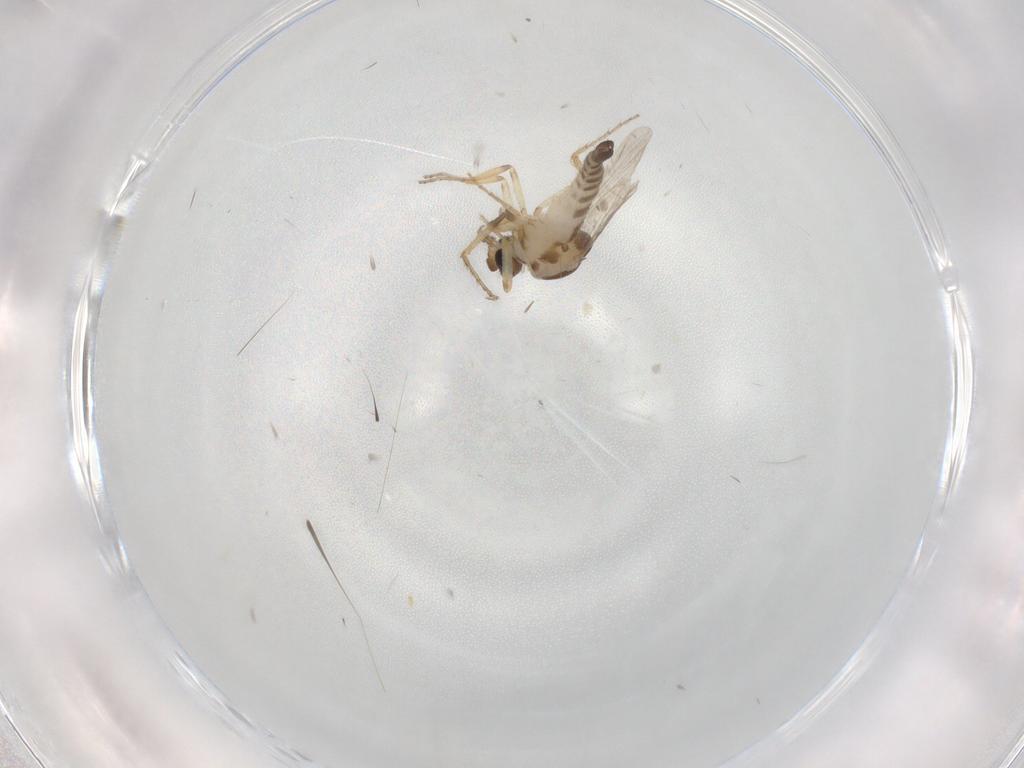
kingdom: Animalia
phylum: Arthropoda
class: Insecta
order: Diptera
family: Ceratopogonidae
